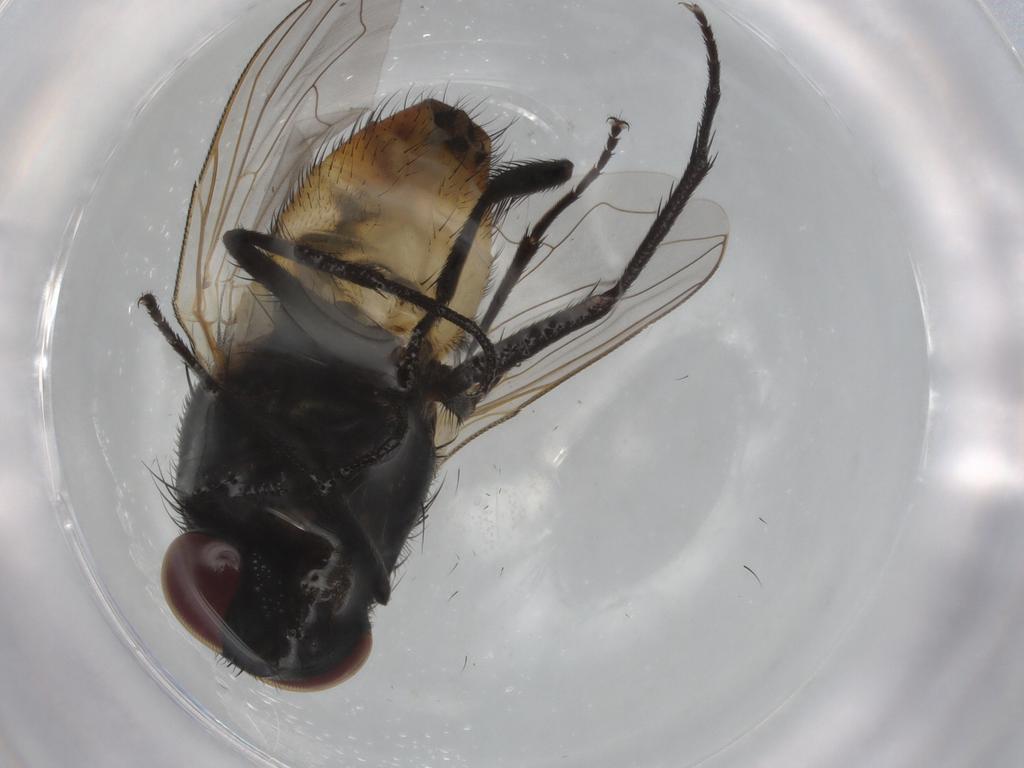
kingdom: Animalia
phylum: Arthropoda
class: Insecta
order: Diptera
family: Muscidae
